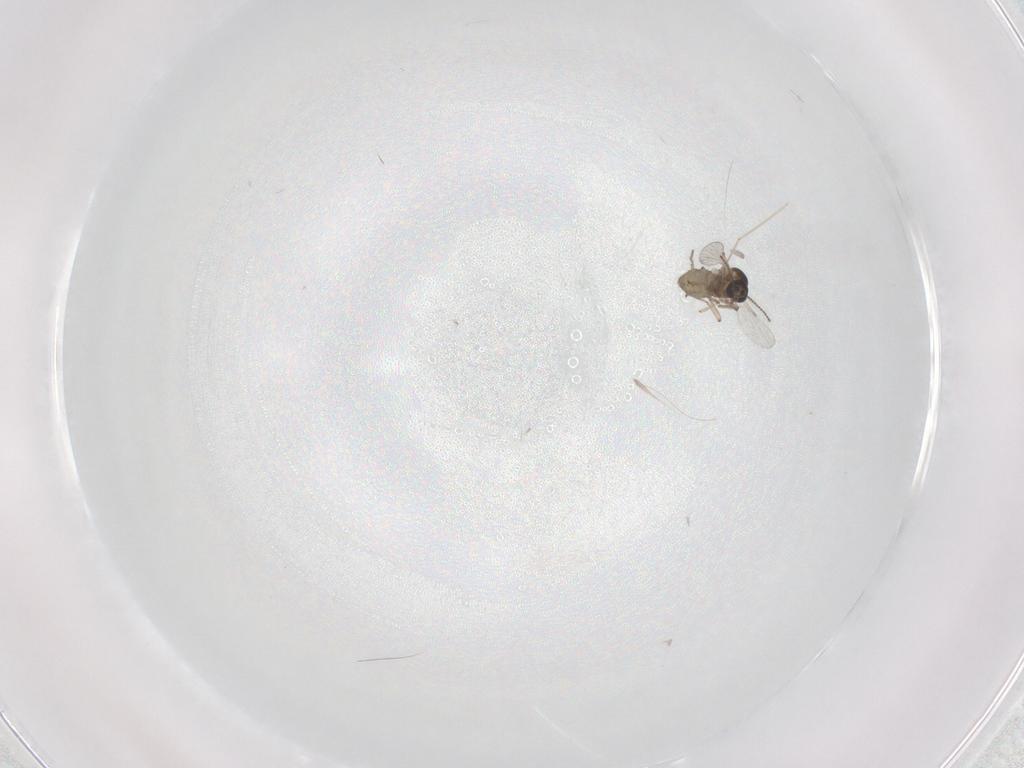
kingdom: Animalia
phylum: Arthropoda
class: Insecta
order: Diptera
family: Ceratopogonidae
